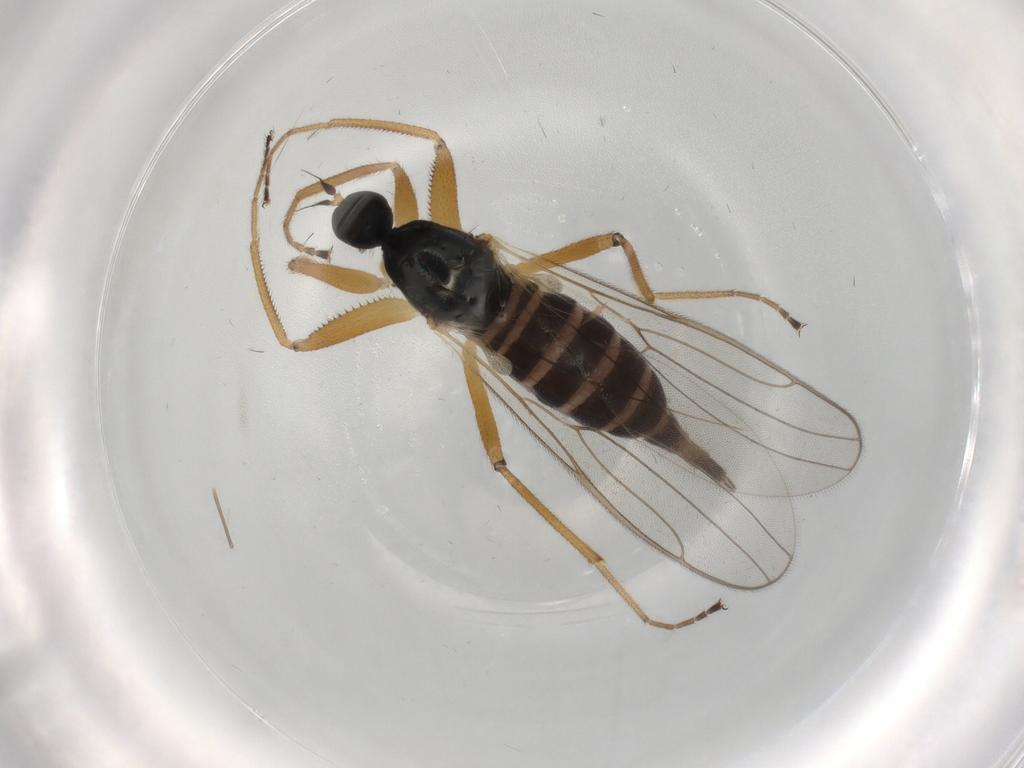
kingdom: Animalia
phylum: Arthropoda
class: Insecta
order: Diptera
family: Hybotidae
